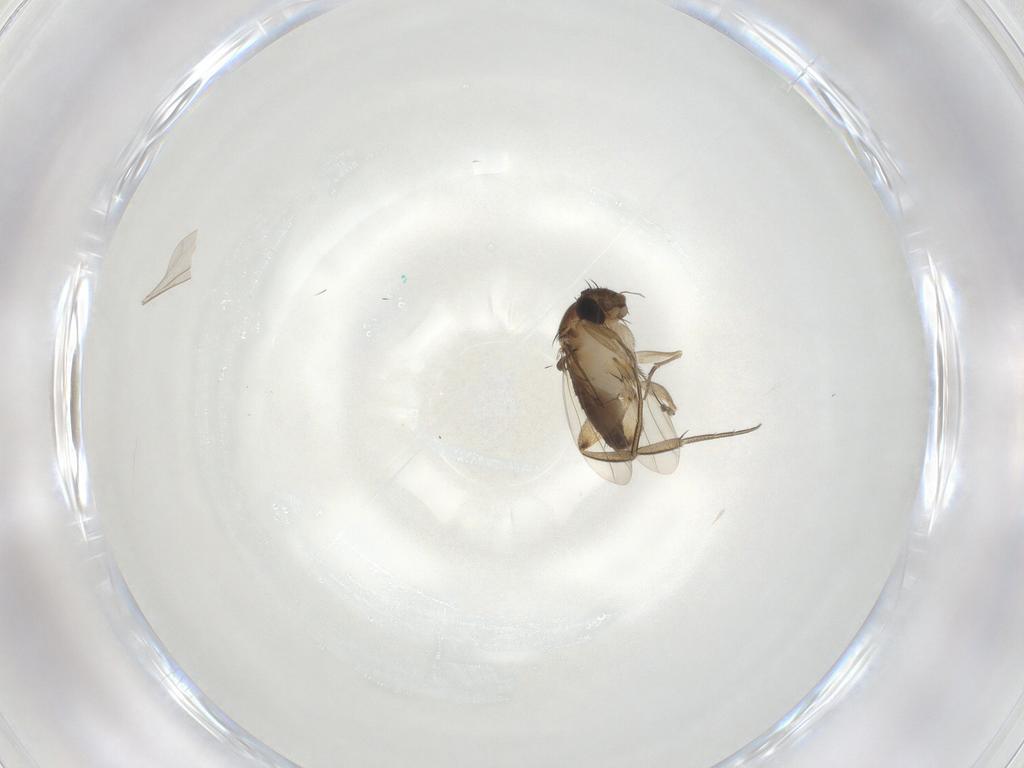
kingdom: Animalia
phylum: Arthropoda
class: Insecta
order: Diptera
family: Phoridae
